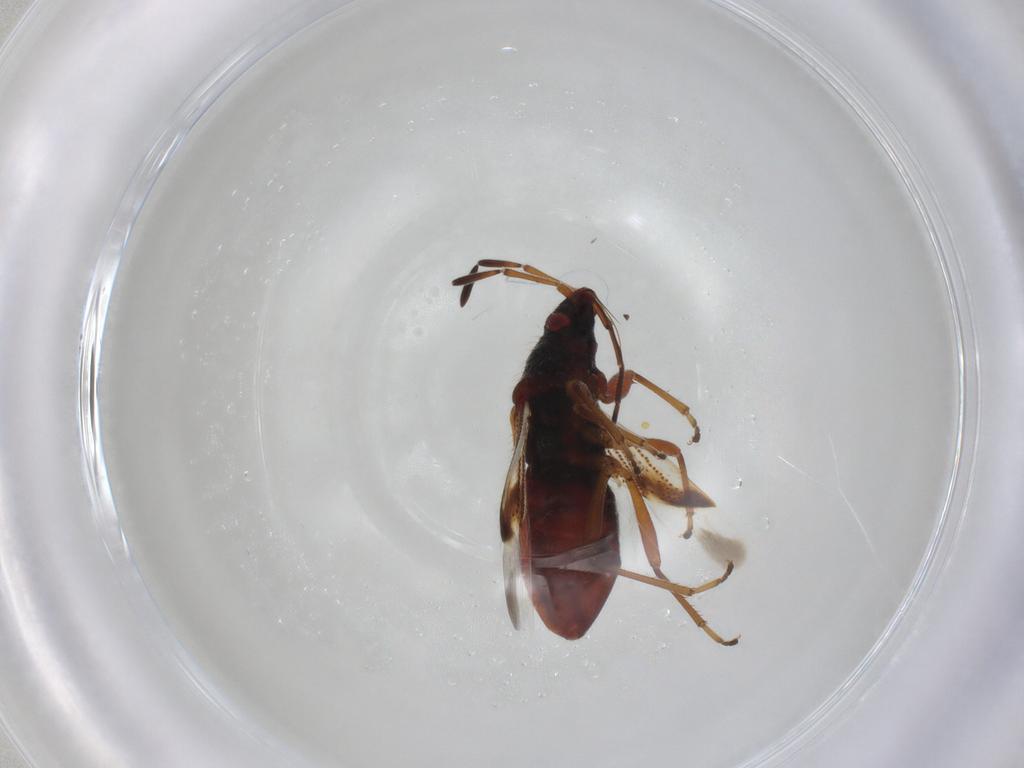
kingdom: Animalia
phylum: Arthropoda
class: Insecta
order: Hemiptera
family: Rhyparochromidae
